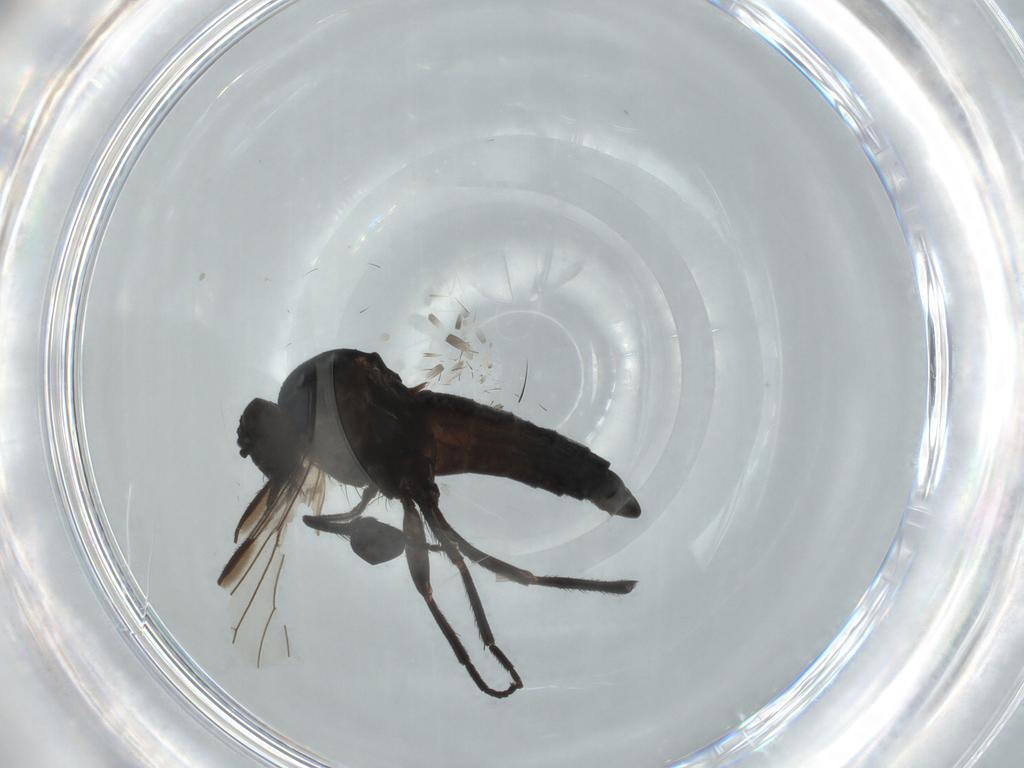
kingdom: Animalia
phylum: Arthropoda
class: Insecta
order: Diptera
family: Empididae
